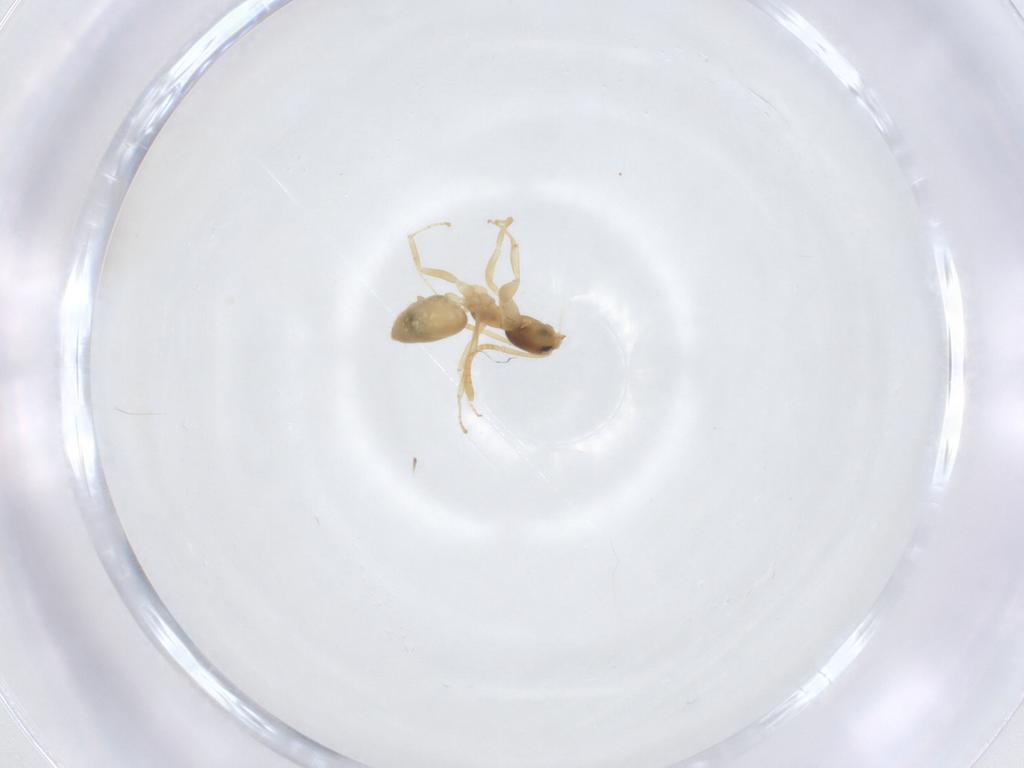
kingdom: Animalia
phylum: Arthropoda
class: Insecta
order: Hymenoptera
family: Formicidae
